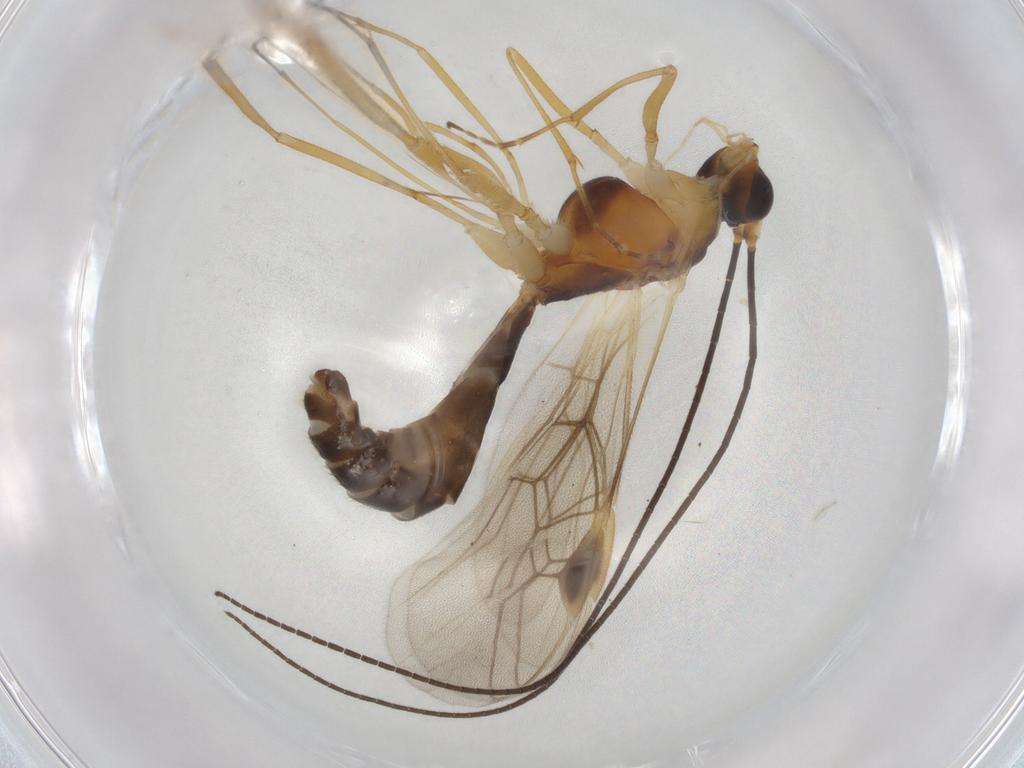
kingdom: Animalia
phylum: Arthropoda
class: Insecta
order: Hymenoptera
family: Braconidae
